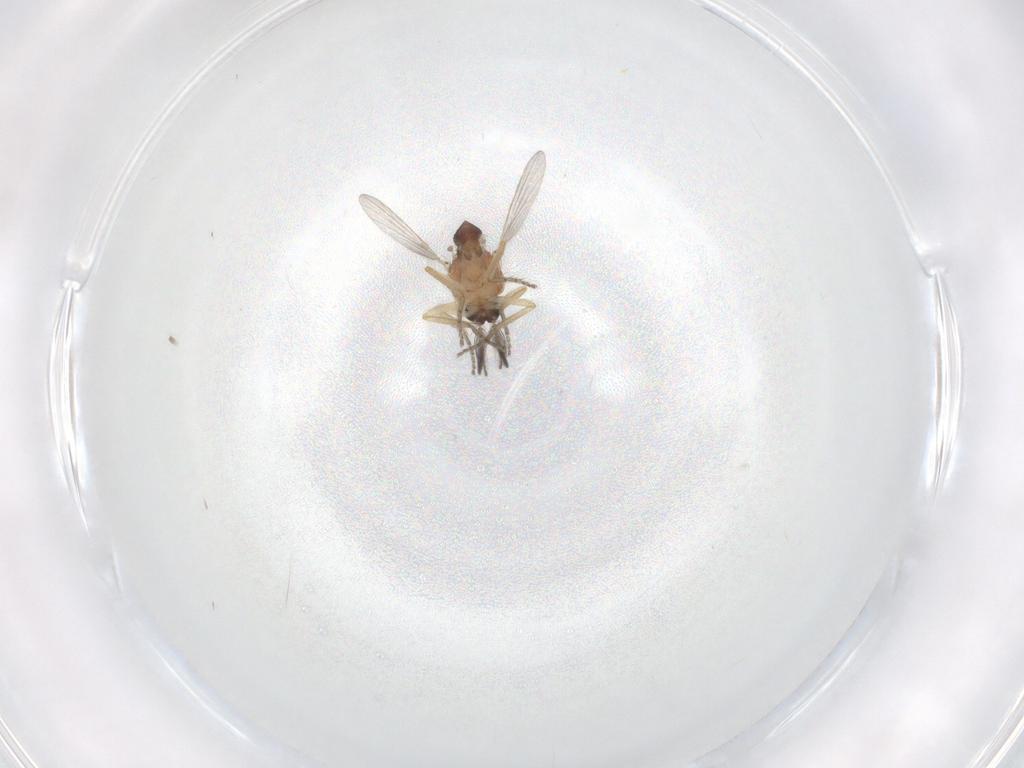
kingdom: Animalia
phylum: Arthropoda
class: Insecta
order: Diptera
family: Ceratopogonidae
